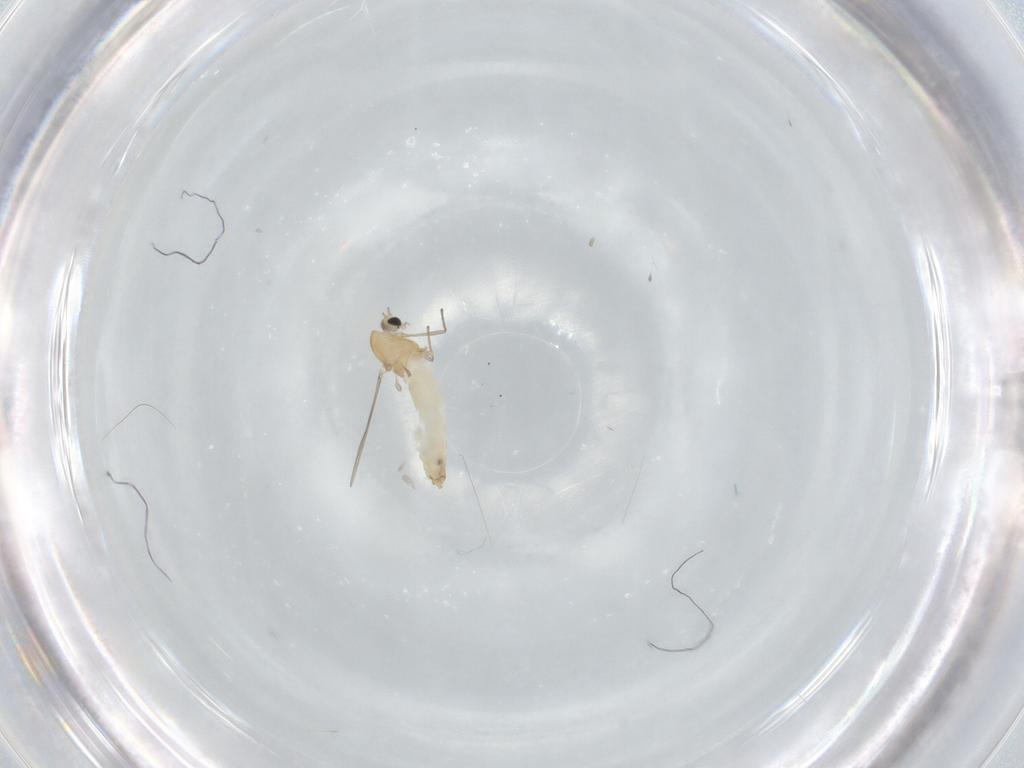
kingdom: Animalia
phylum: Arthropoda
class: Insecta
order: Diptera
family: Chironomidae
